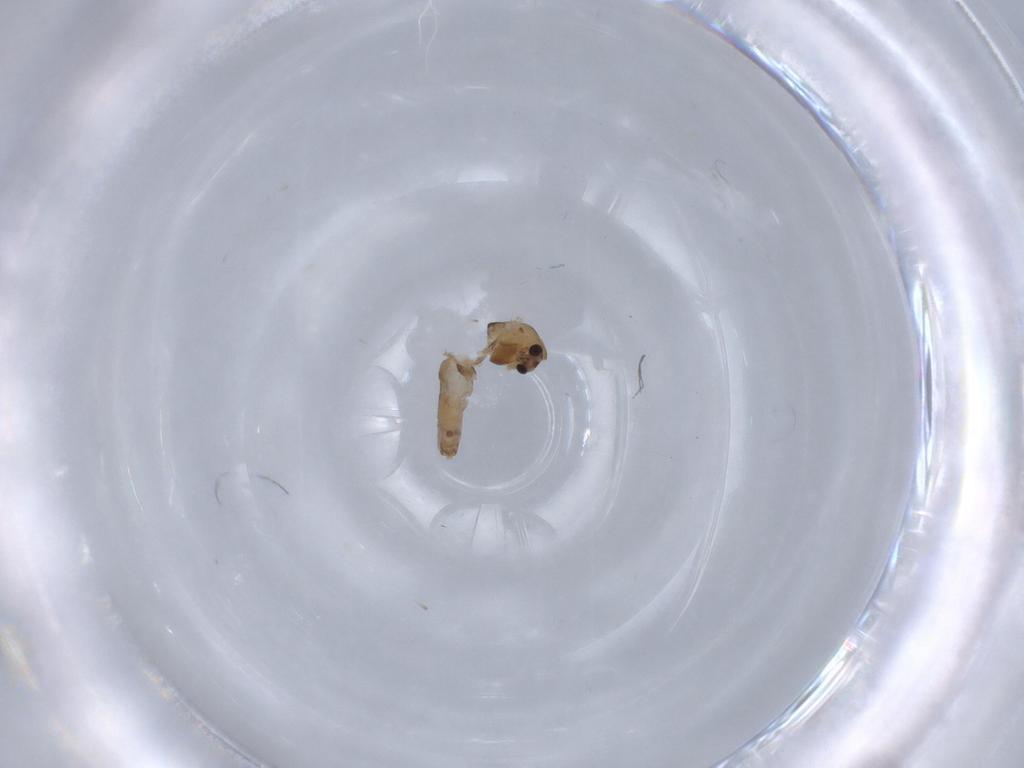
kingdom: Animalia
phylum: Arthropoda
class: Insecta
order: Diptera
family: Chironomidae
